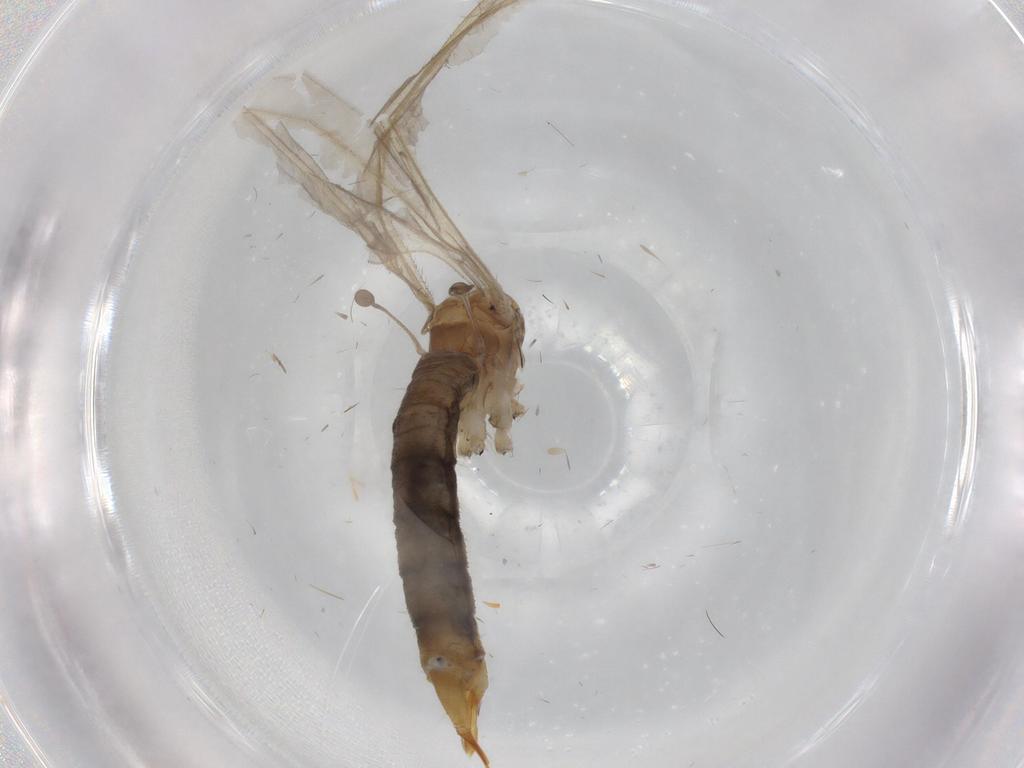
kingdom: Animalia
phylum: Arthropoda
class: Insecta
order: Diptera
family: Limoniidae
